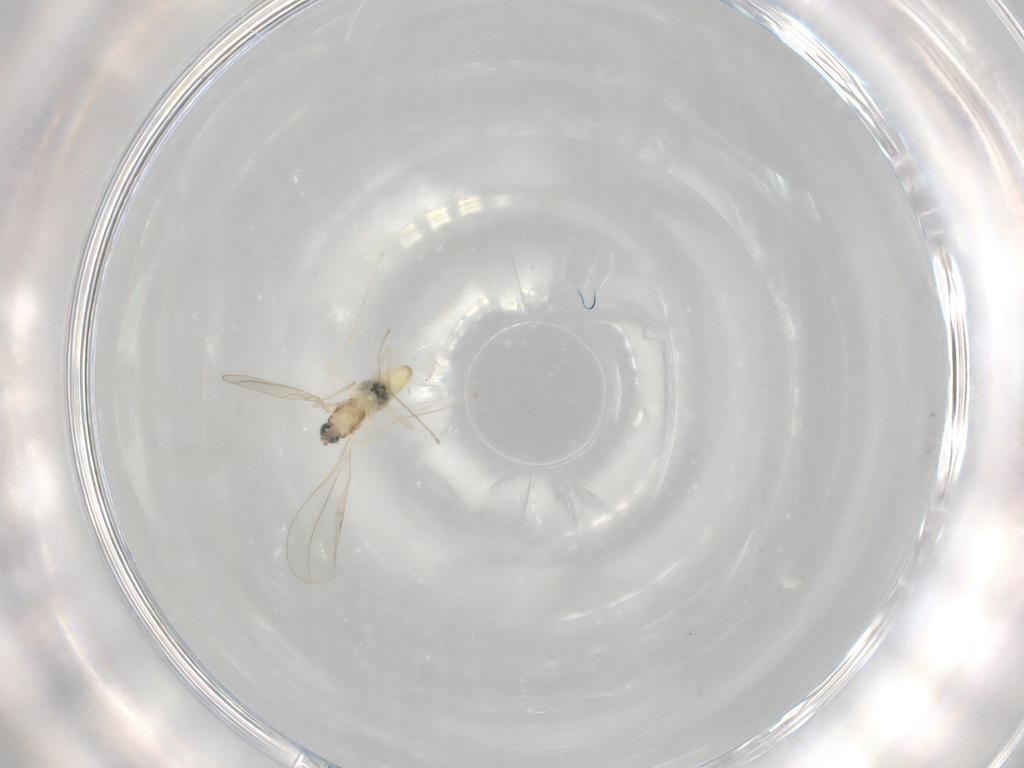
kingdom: Animalia
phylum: Arthropoda
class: Insecta
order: Diptera
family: Cecidomyiidae
